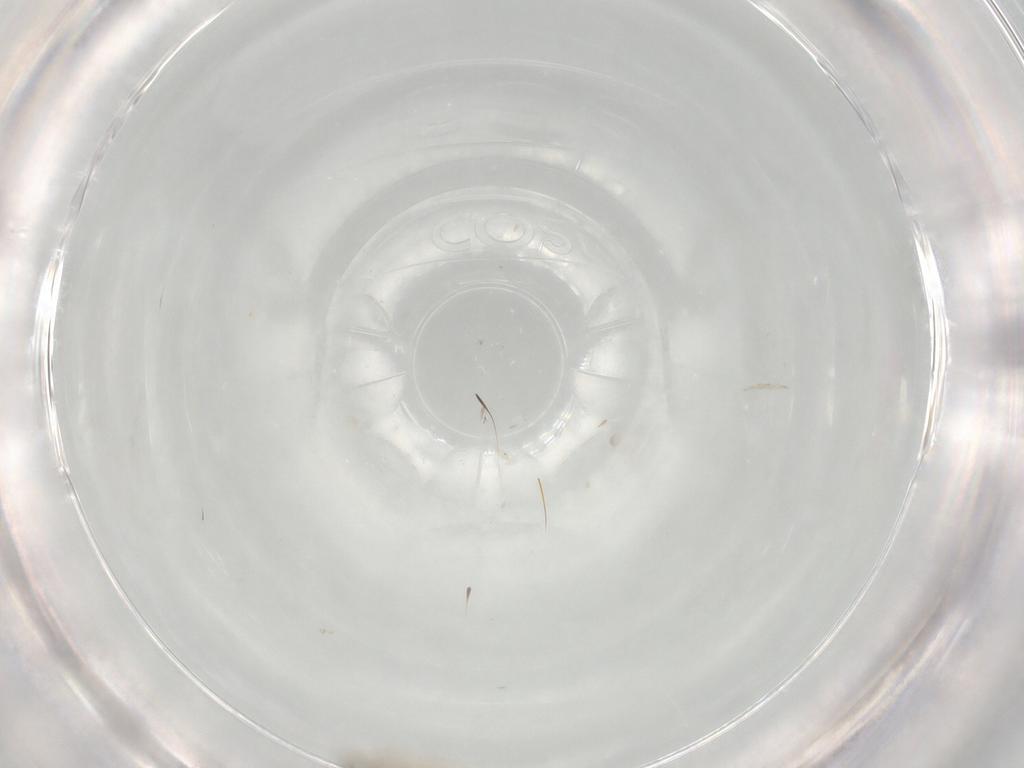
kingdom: Animalia
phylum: Arthropoda
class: Insecta
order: Diptera
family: Cecidomyiidae
